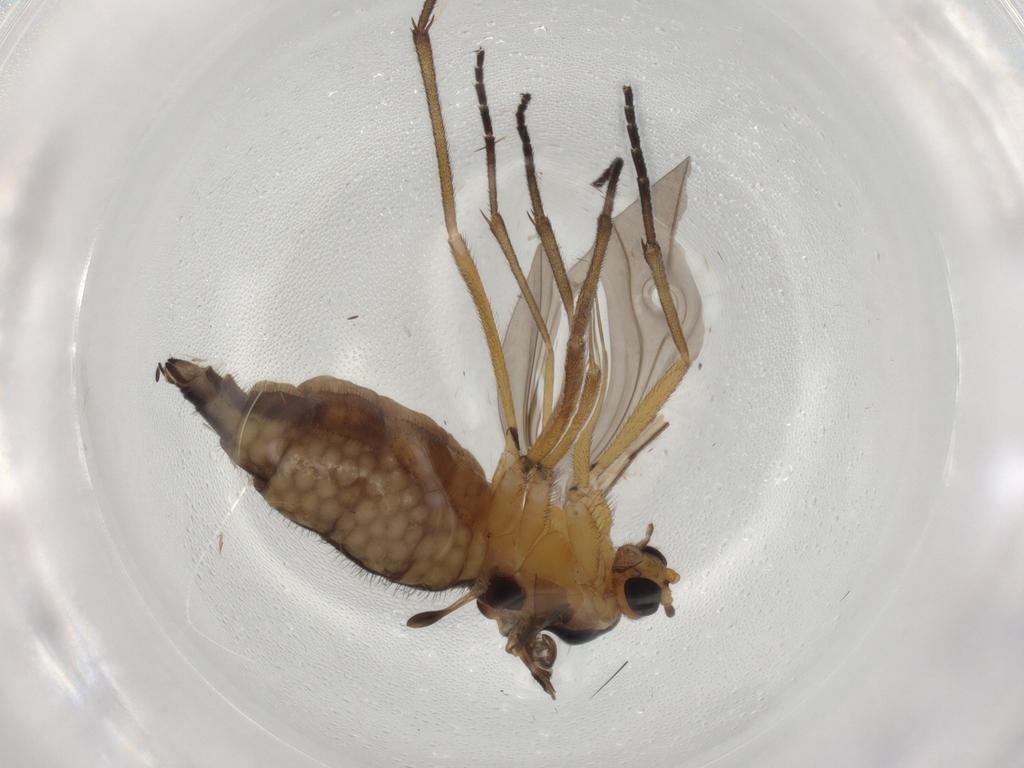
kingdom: Animalia
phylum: Arthropoda
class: Insecta
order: Diptera
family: Sciaridae
